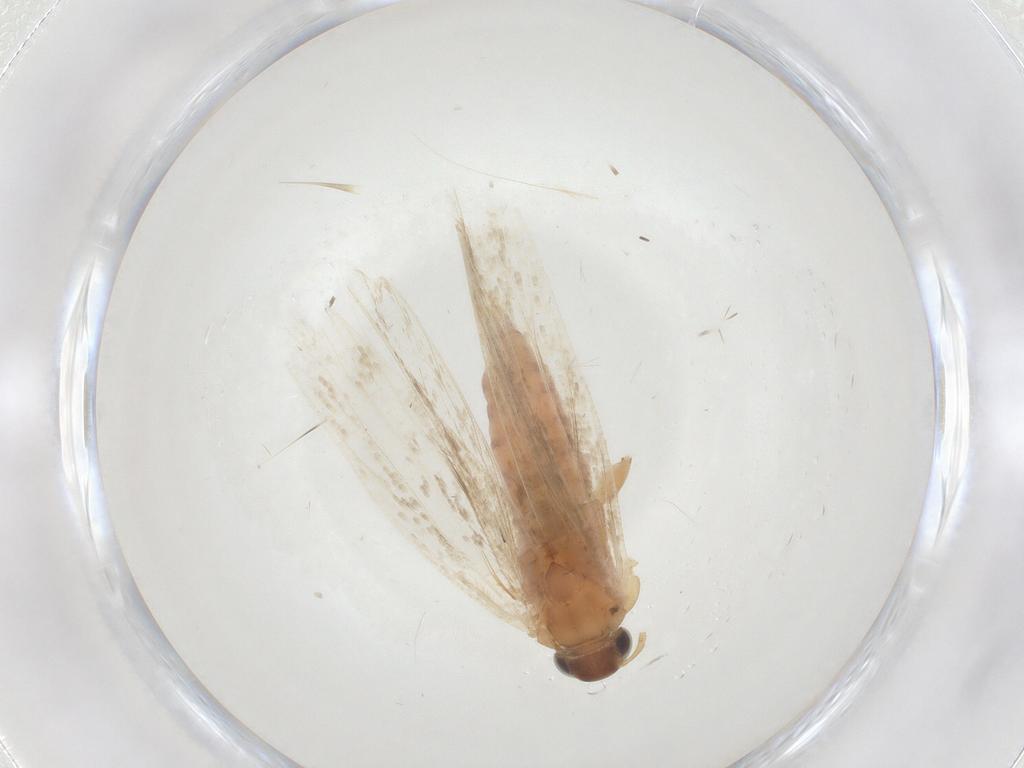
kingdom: Animalia
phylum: Arthropoda
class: Insecta
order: Lepidoptera
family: Gelechiidae
